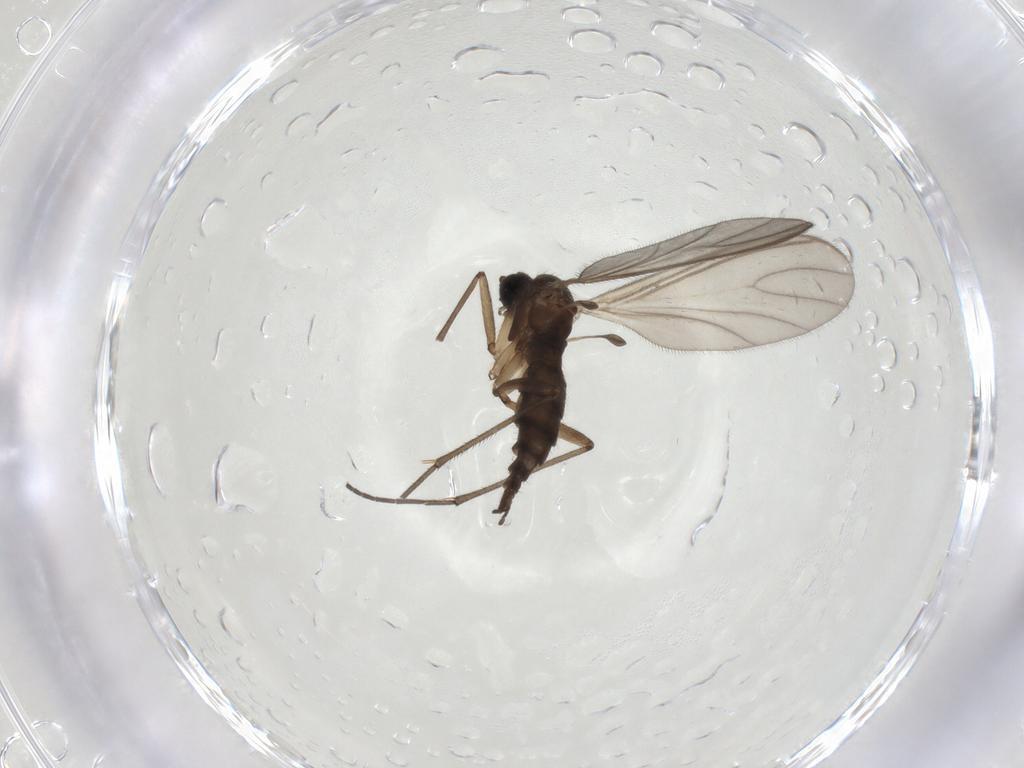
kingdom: Animalia
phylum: Arthropoda
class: Insecta
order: Diptera
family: Sciaridae
